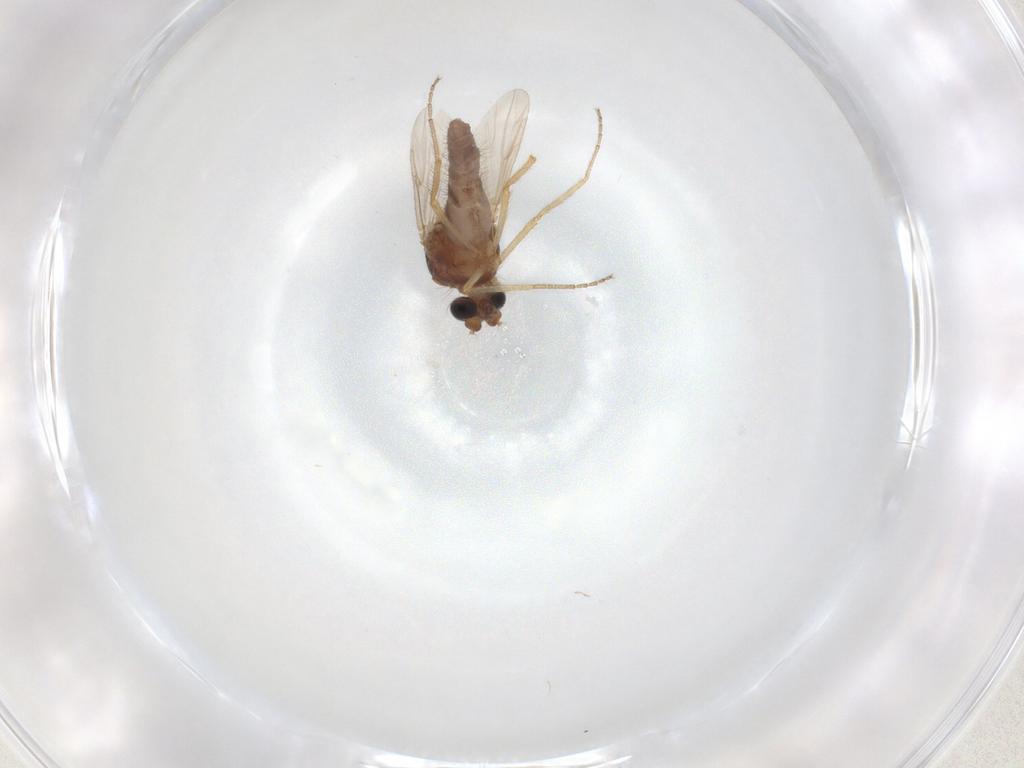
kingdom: Animalia
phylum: Arthropoda
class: Insecta
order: Diptera
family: Ceratopogonidae
